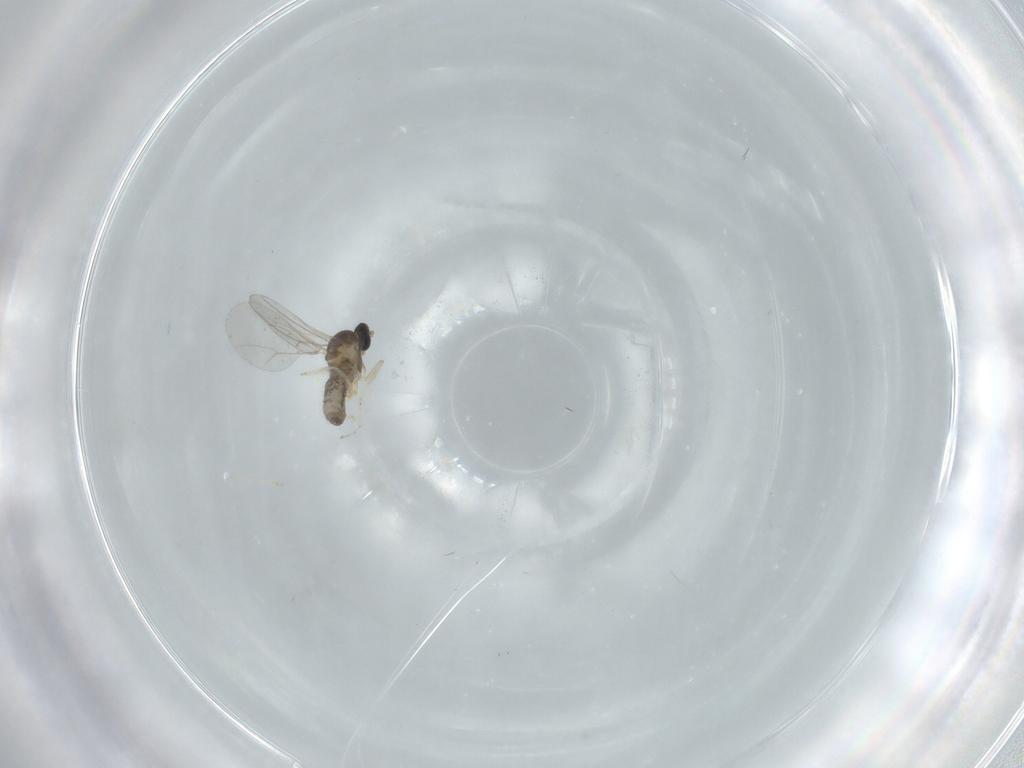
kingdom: Animalia
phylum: Arthropoda
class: Insecta
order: Diptera
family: Cecidomyiidae
